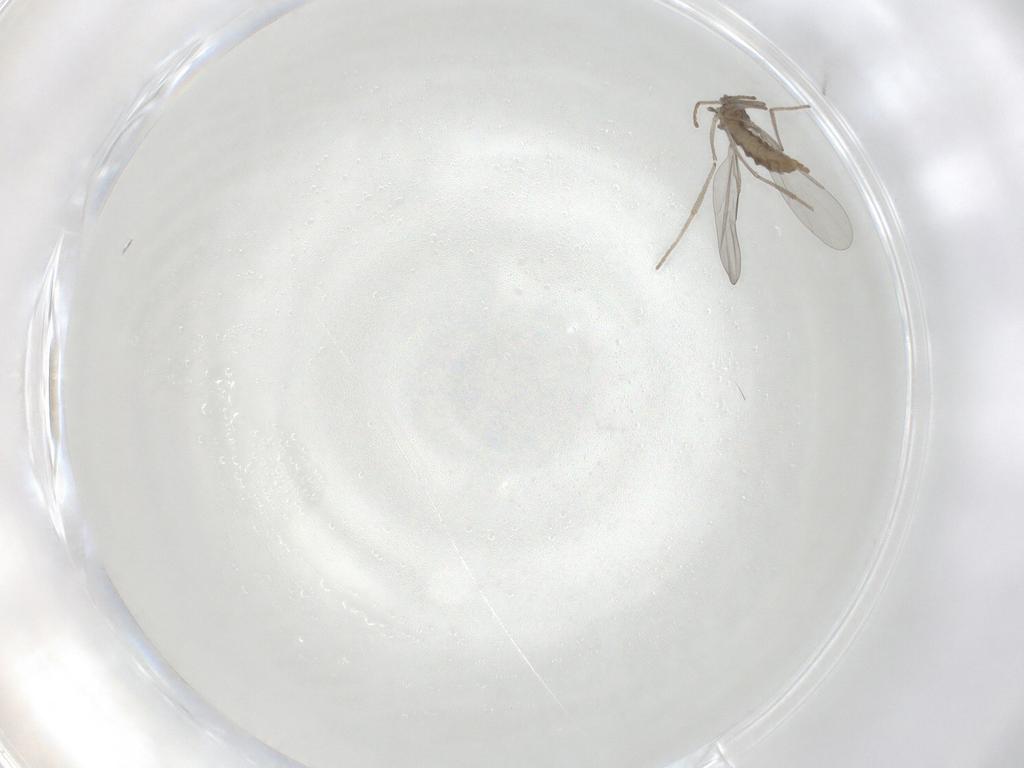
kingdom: Animalia
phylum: Arthropoda
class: Insecta
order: Diptera
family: Cecidomyiidae
